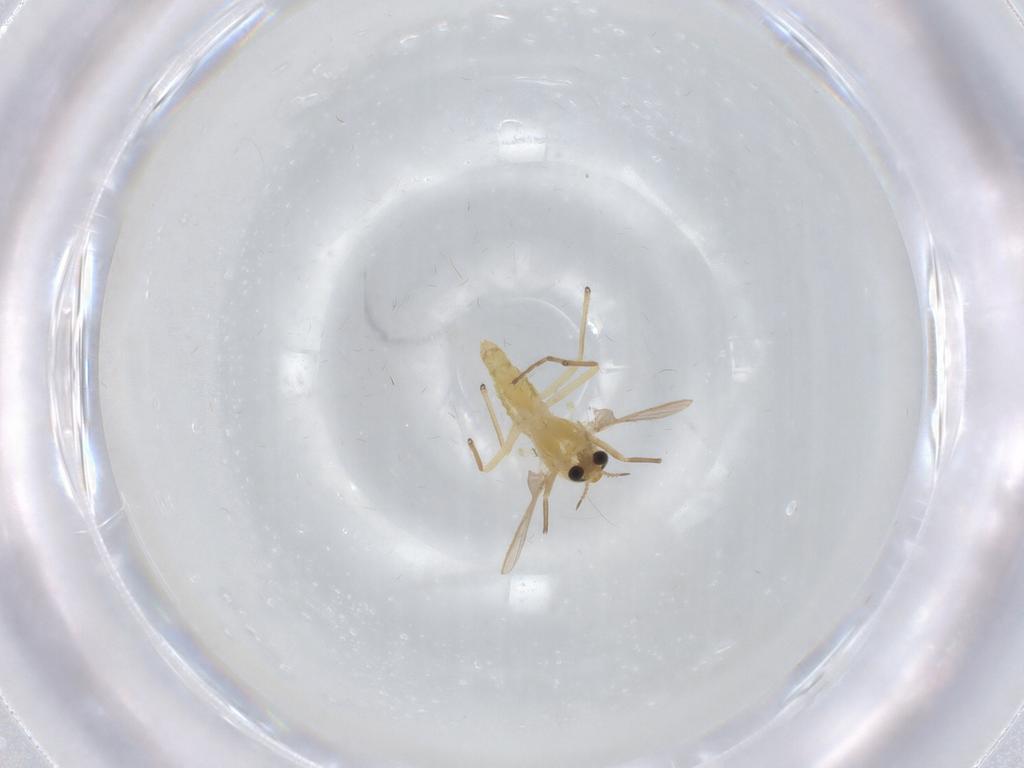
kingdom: Animalia
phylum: Arthropoda
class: Insecta
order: Diptera
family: Chironomidae
